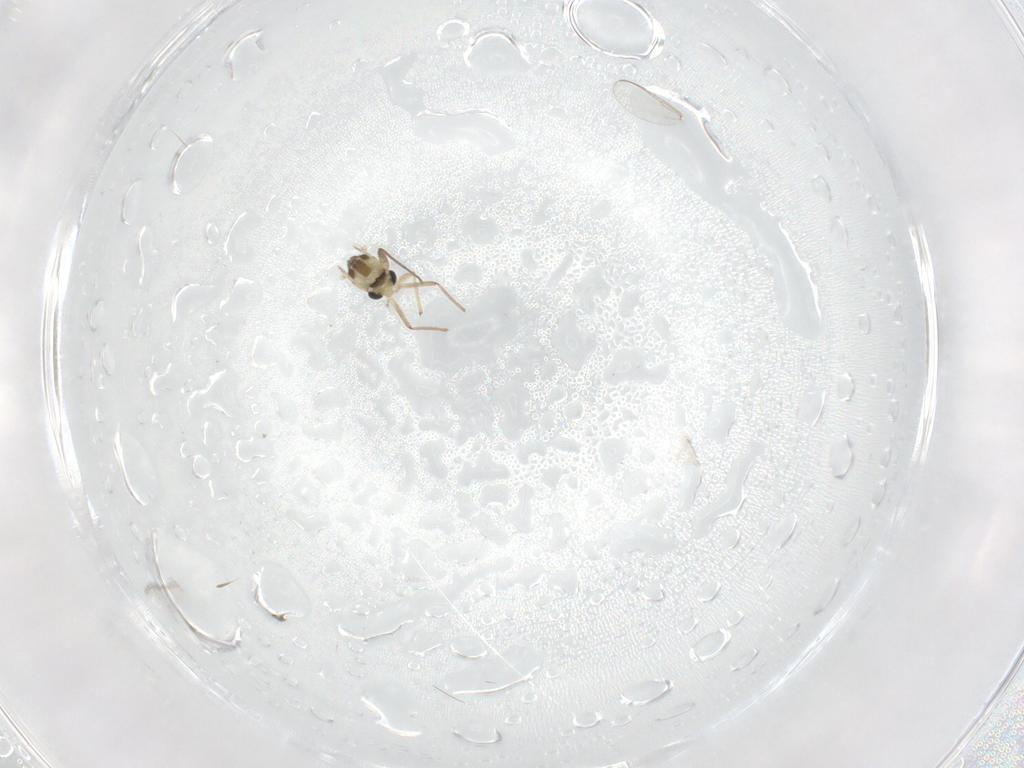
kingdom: Animalia
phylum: Arthropoda
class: Insecta
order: Diptera
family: Chironomidae
